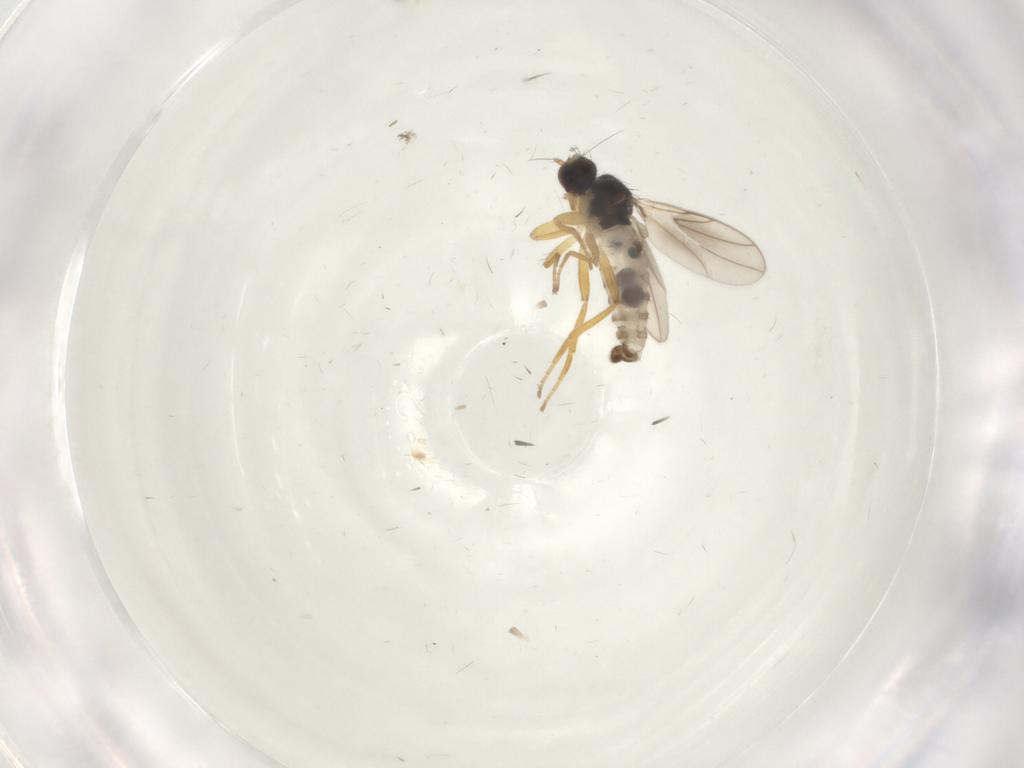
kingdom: Animalia
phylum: Arthropoda
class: Insecta
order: Diptera
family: Hybotidae
